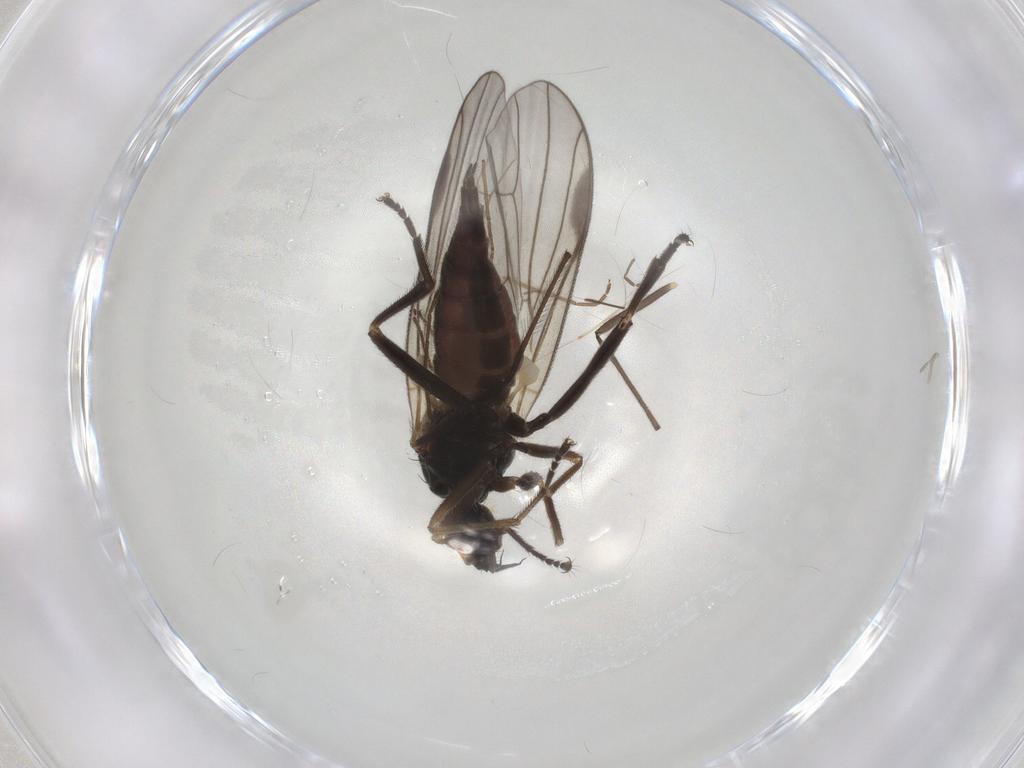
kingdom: Animalia
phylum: Arthropoda
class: Insecta
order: Diptera
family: Hybotidae
